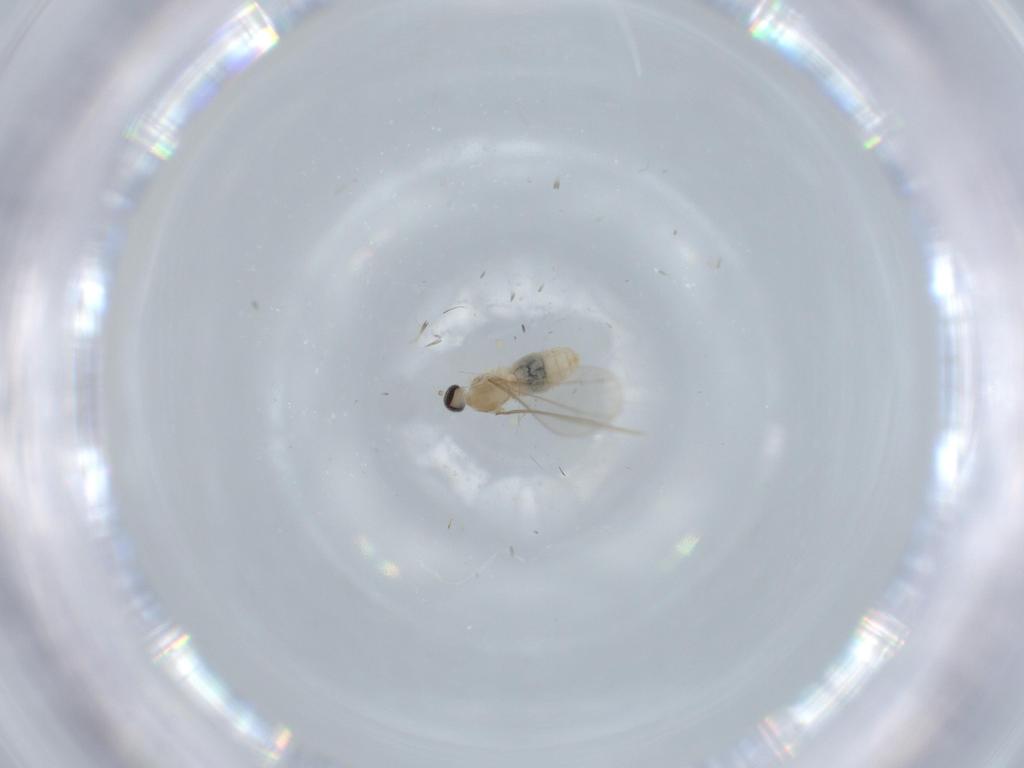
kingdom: Animalia
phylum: Arthropoda
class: Insecta
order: Diptera
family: Cecidomyiidae
